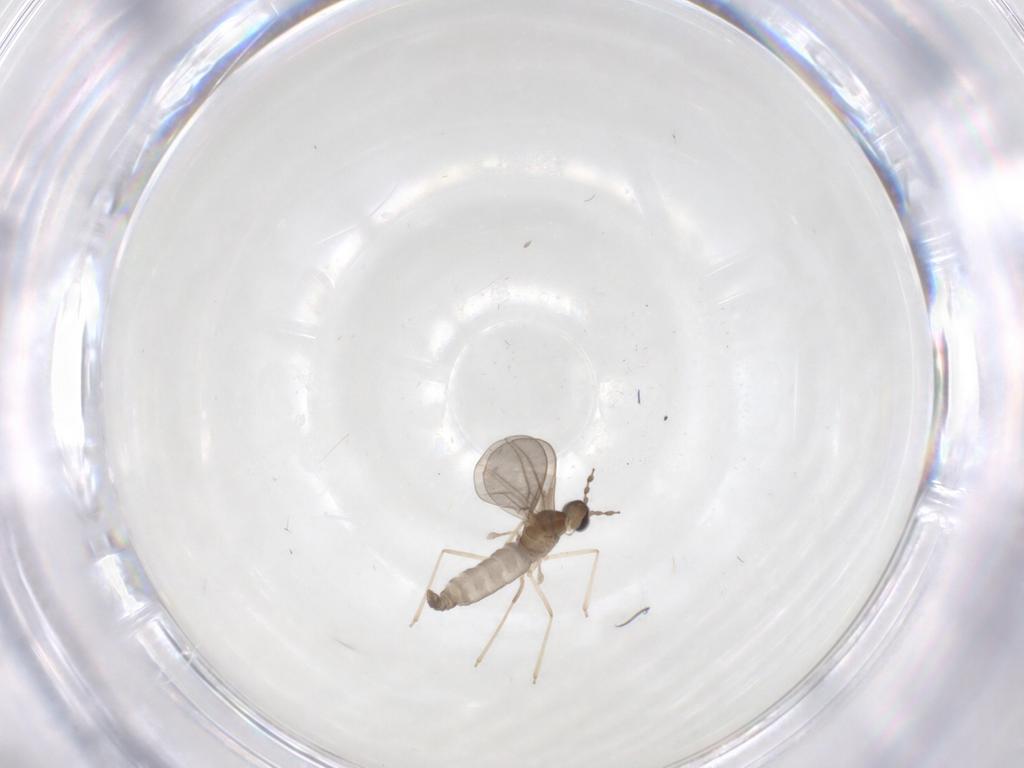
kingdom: Animalia
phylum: Arthropoda
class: Insecta
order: Diptera
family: Cecidomyiidae
